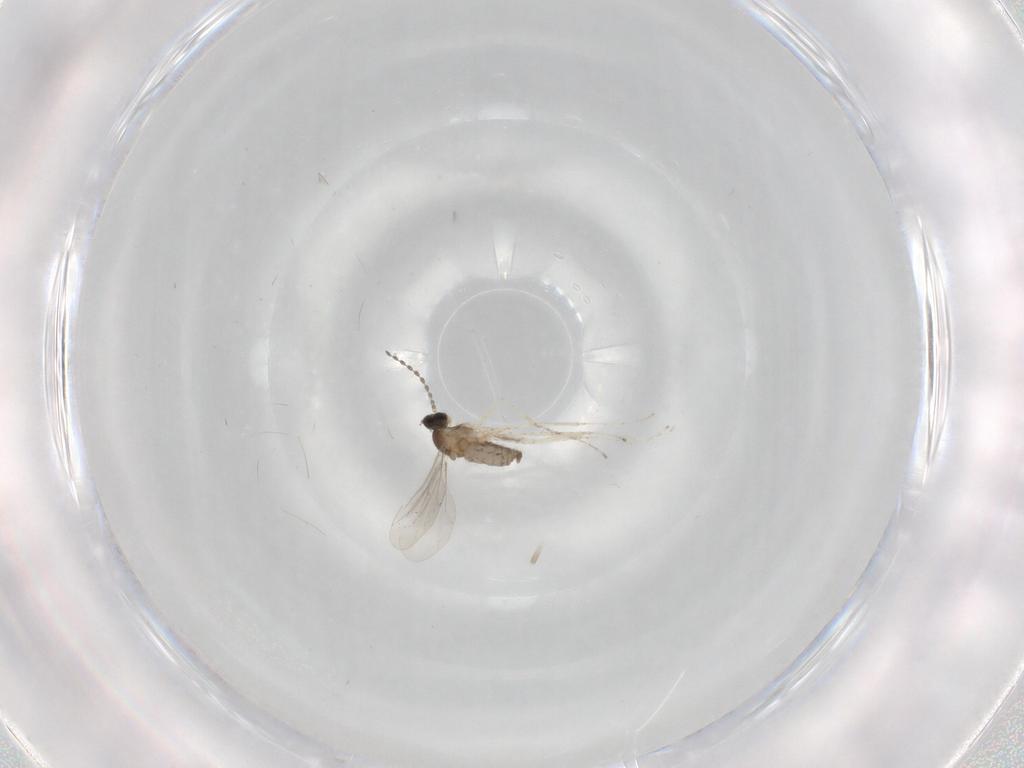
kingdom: Animalia
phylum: Arthropoda
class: Insecta
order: Diptera
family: Cecidomyiidae
